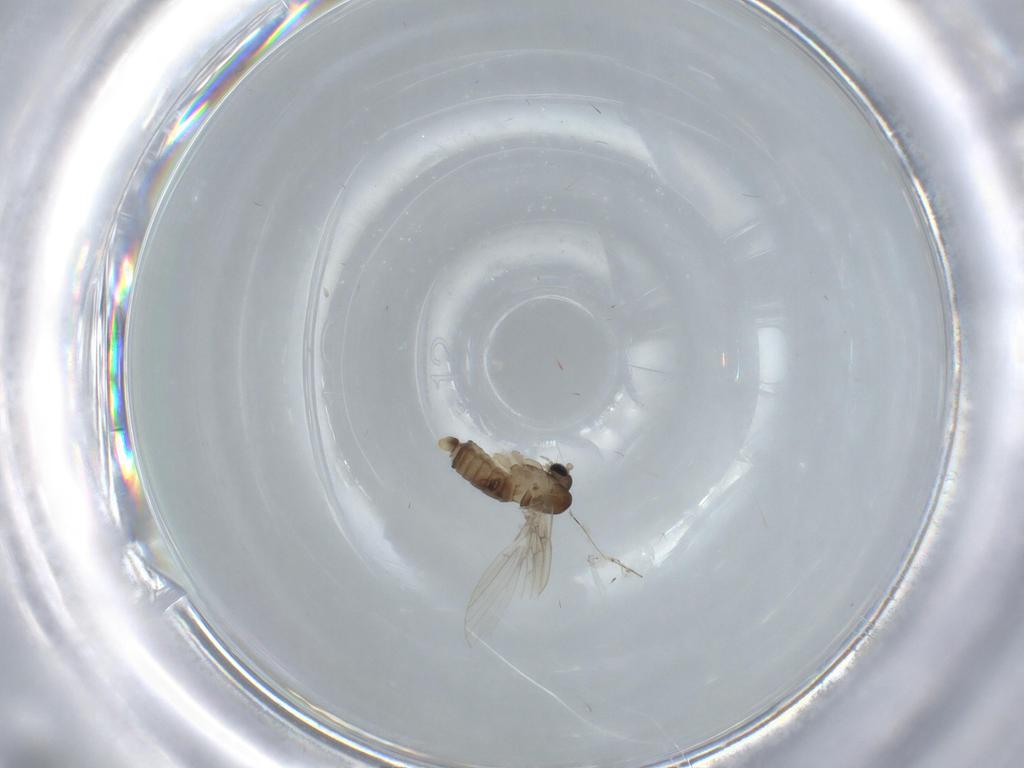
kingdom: Animalia
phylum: Arthropoda
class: Insecta
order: Diptera
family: Psychodidae
